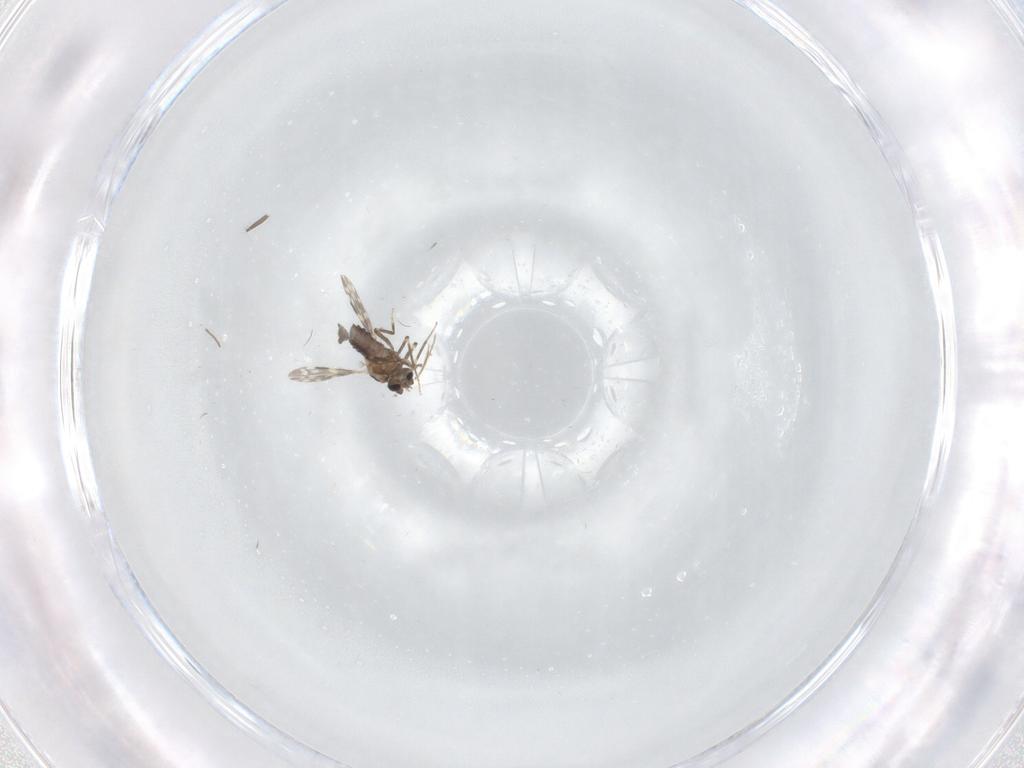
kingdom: Animalia
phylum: Arthropoda
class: Insecta
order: Diptera
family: Ceratopogonidae
